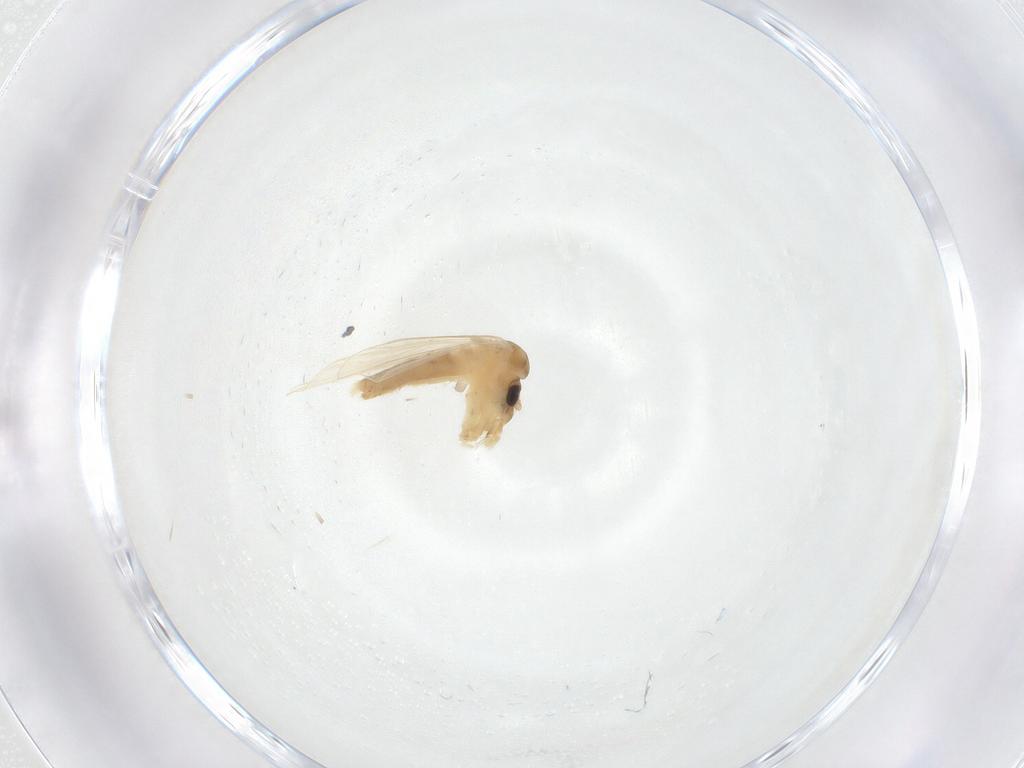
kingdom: Animalia
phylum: Arthropoda
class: Insecta
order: Diptera
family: Psychodidae
